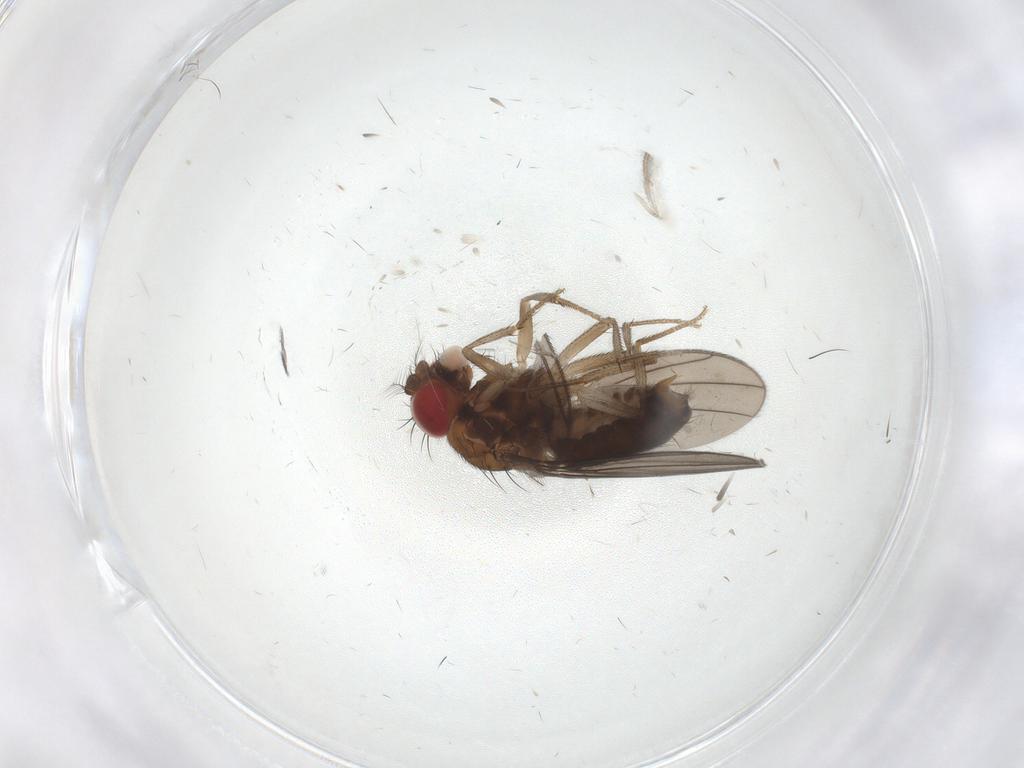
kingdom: Animalia
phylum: Arthropoda
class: Insecta
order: Diptera
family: Drosophilidae
